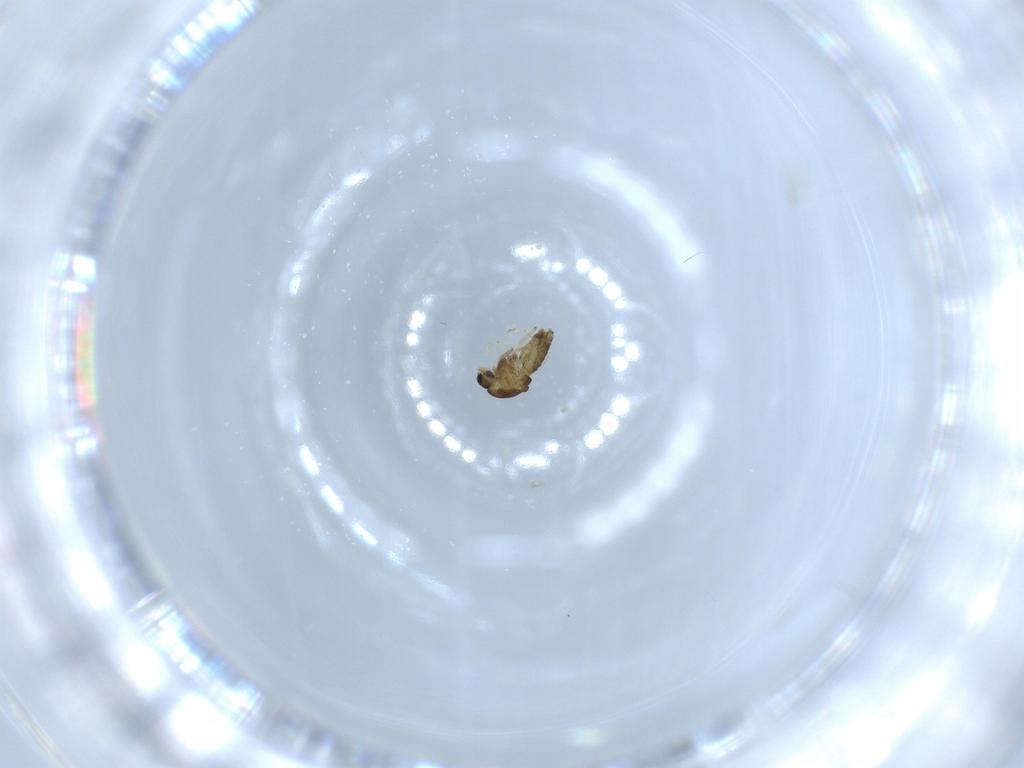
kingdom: Animalia
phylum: Arthropoda
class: Insecta
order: Diptera
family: Chironomidae
